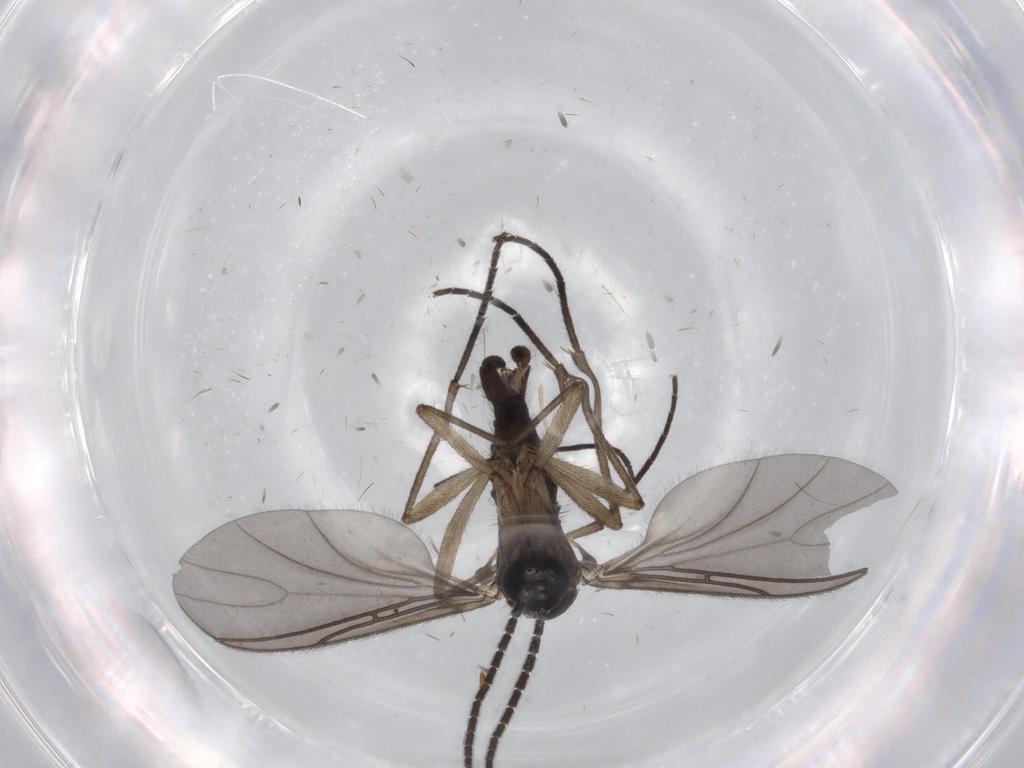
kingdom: Animalia
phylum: Arthropoda
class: Insecta
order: Diptera
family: Sciaridae
